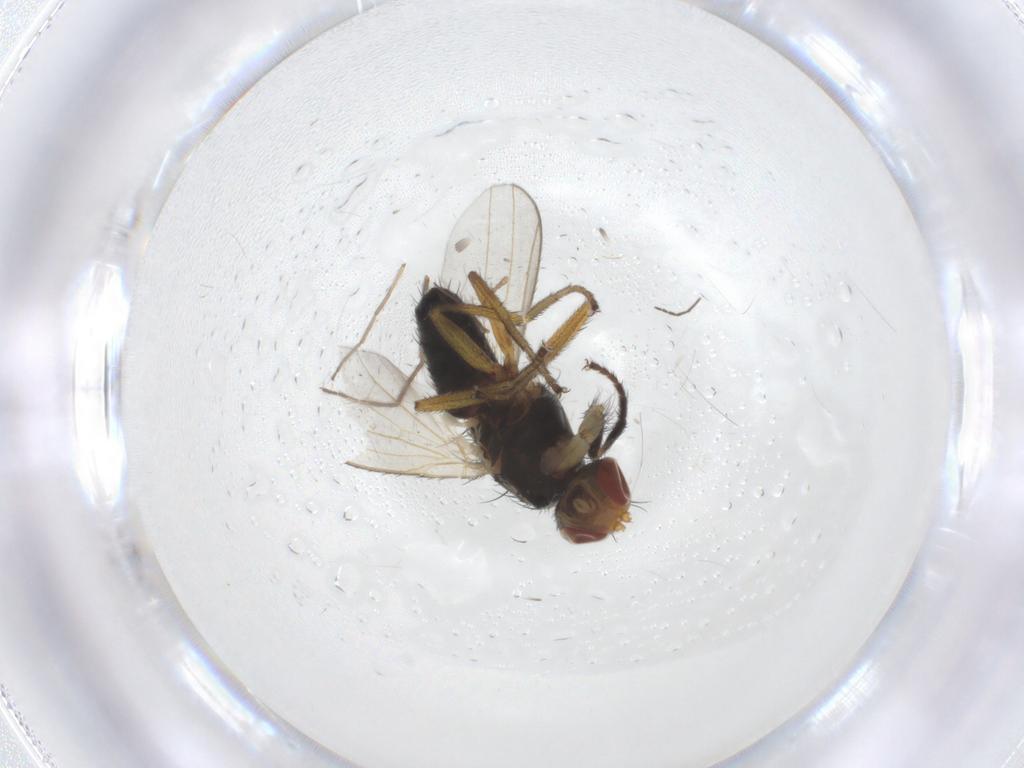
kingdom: Animalia
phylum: Arthropoda
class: Insecta
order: Diptera
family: Heleomyzidae
